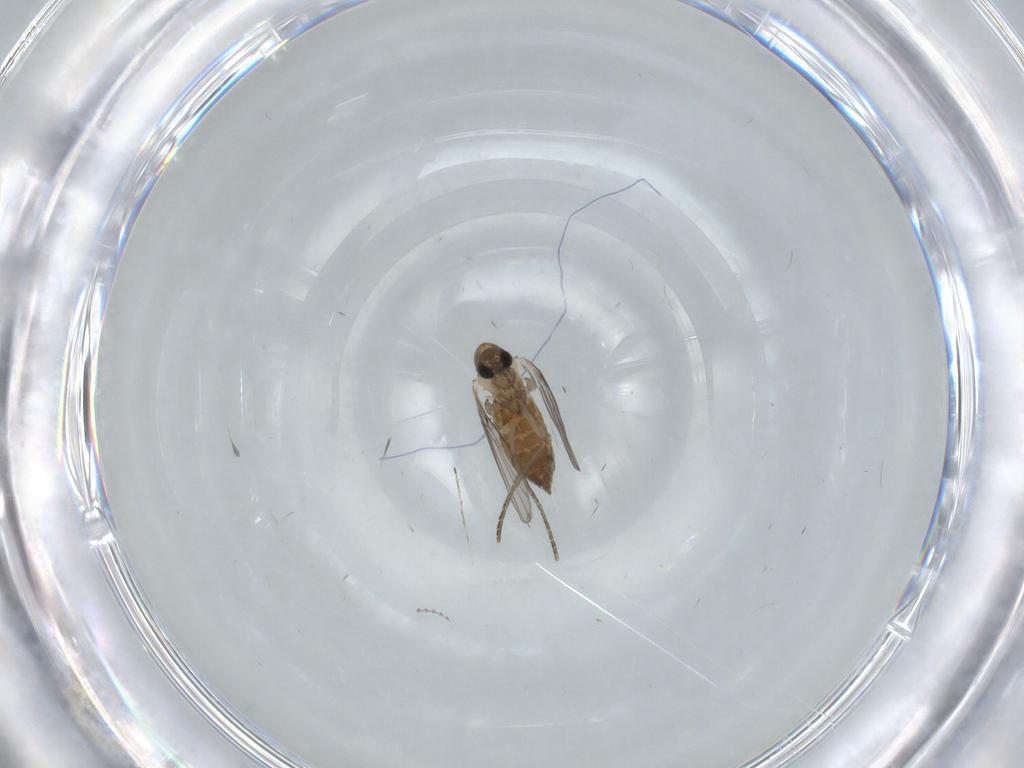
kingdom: Animalia
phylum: Arthropoda
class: Insecta
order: Diptera
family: Cecidomyiidae
